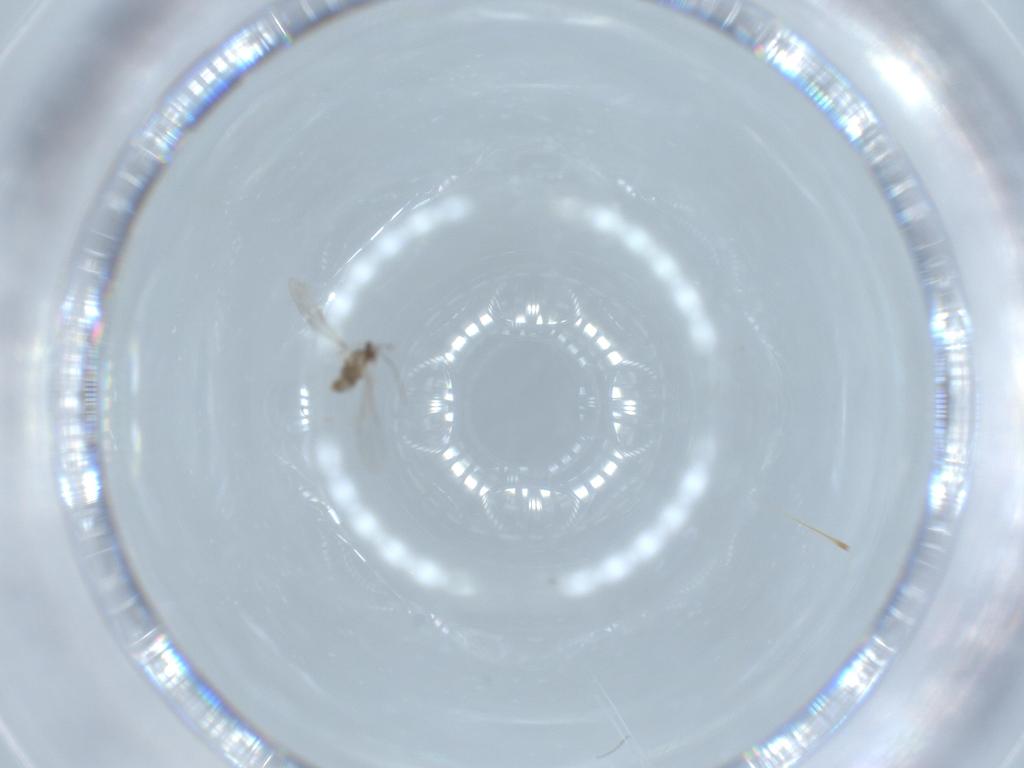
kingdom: Animalia
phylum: Arthropoda
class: Insecta
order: Diptera
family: Cecidomyiidae
